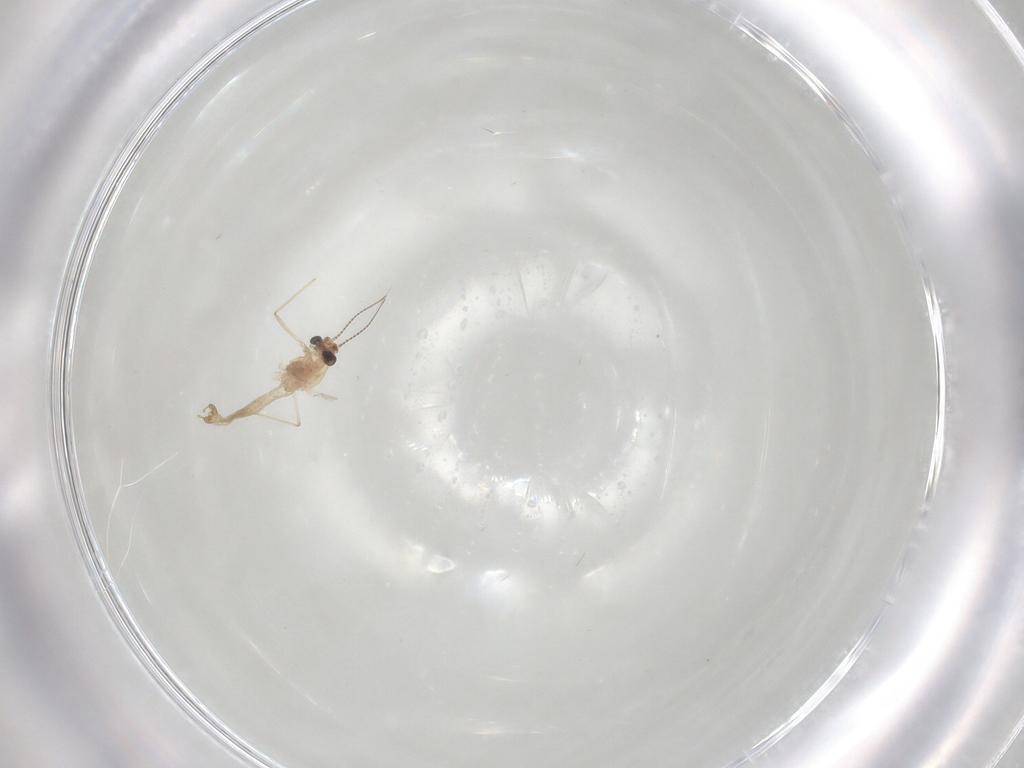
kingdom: Animalia
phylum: Arthropoda
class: Insecta
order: Diptera
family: Chironomidae
